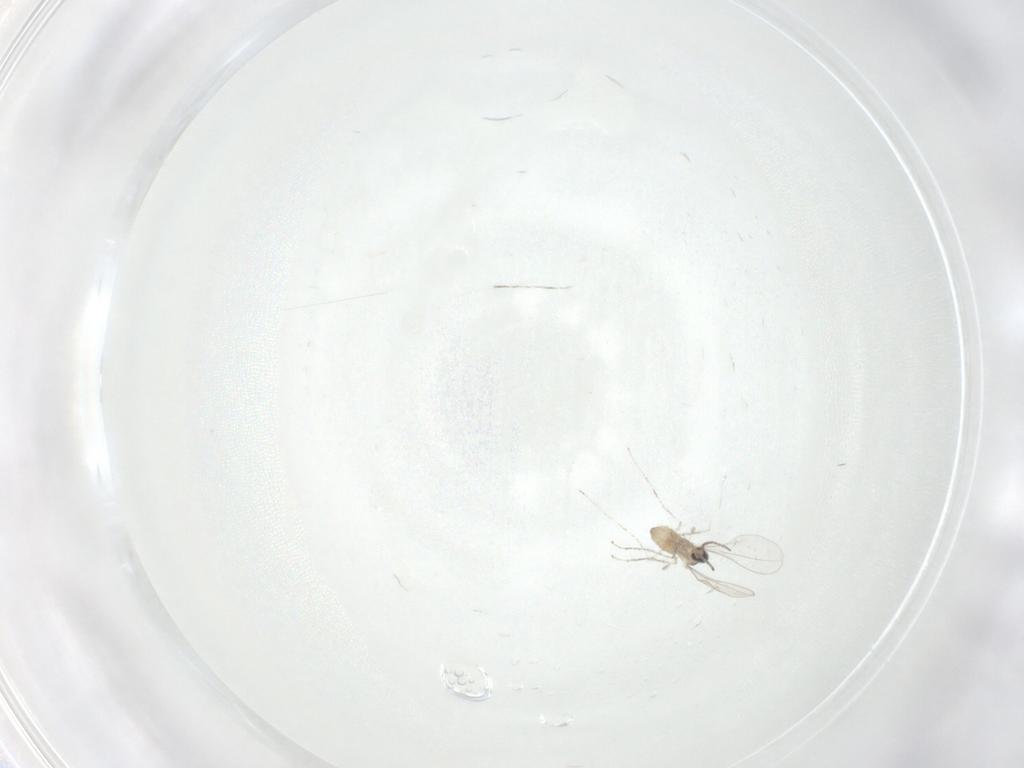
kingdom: Animalia
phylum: Arthropoda
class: Insecta
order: Diptera
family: Cecidomyiidae
